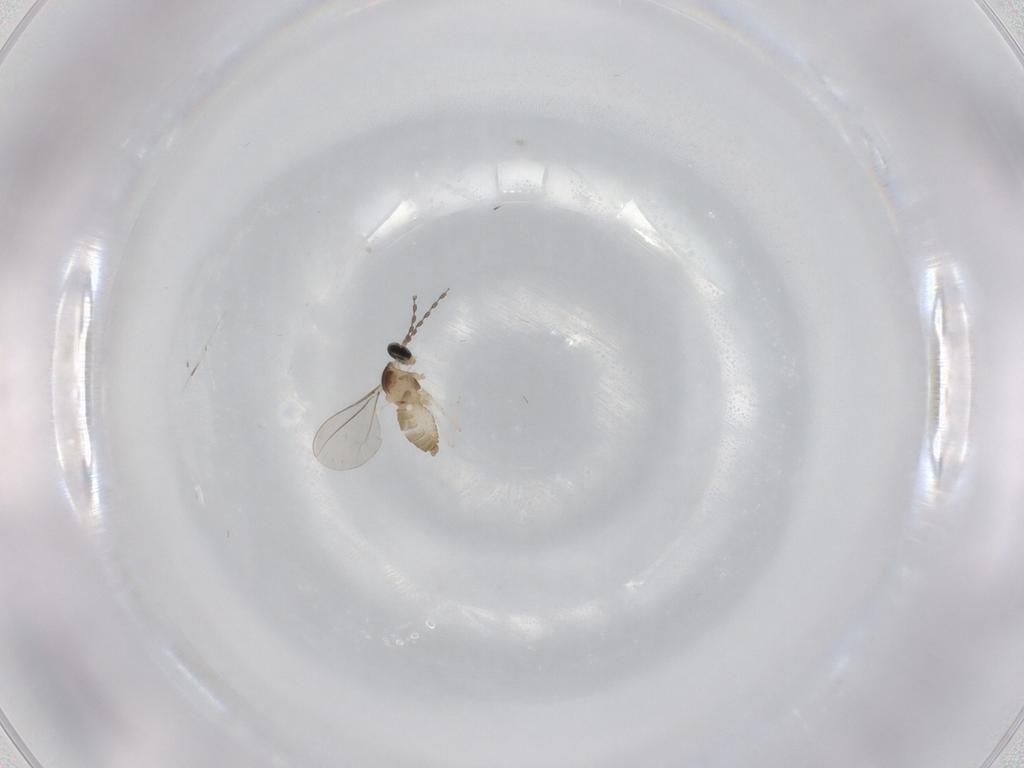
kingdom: Animalia
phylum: Arthropoda
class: Insecta
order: Diptera
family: Cecidomyiidae
